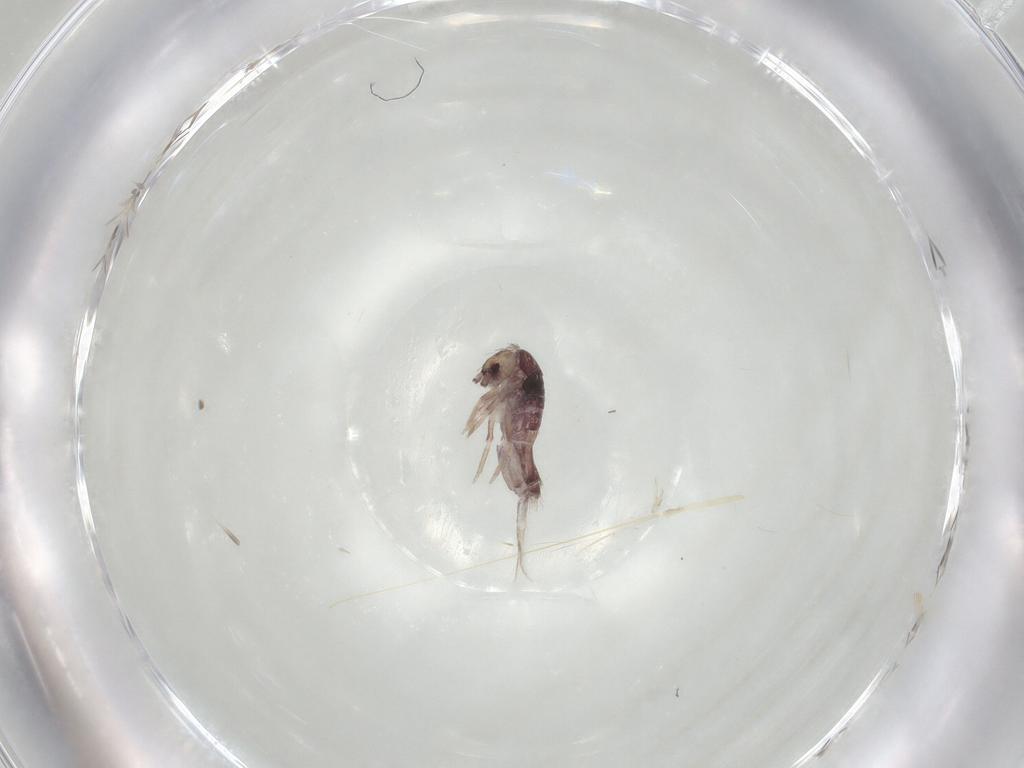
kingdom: Animalia
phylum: Arthropoda
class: Collembola
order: Entomobryomorpha
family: Entomobryidae
